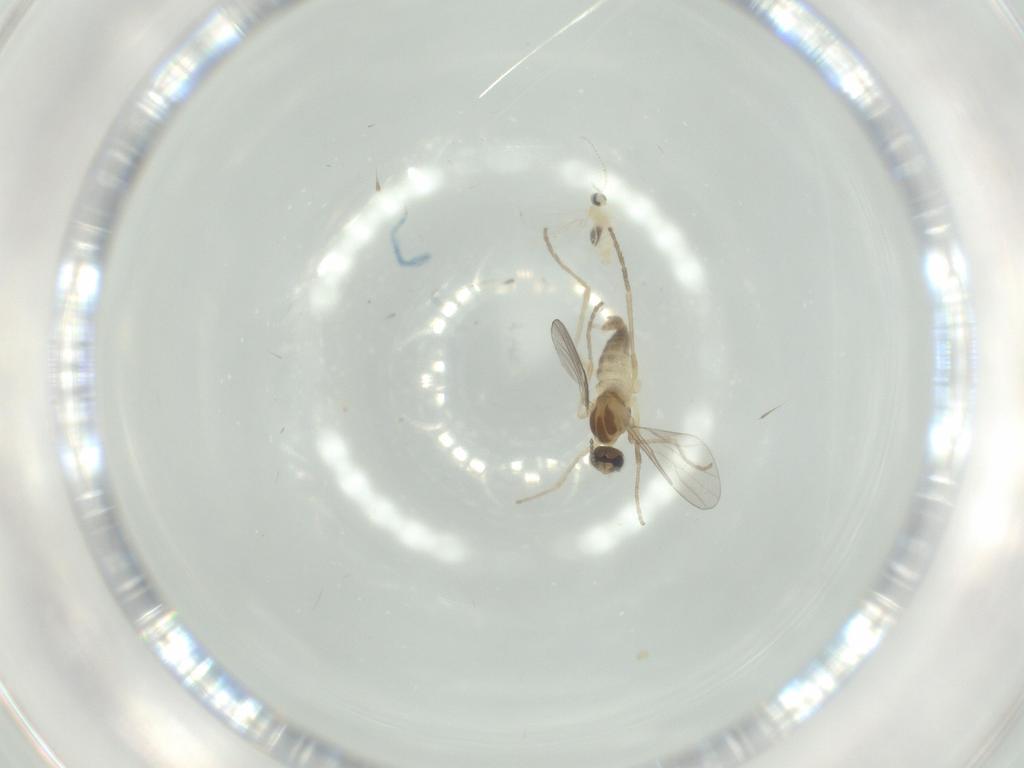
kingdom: Animalia
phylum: Arthropoda
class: Insecta
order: Diptera
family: Cecidomyiidae
